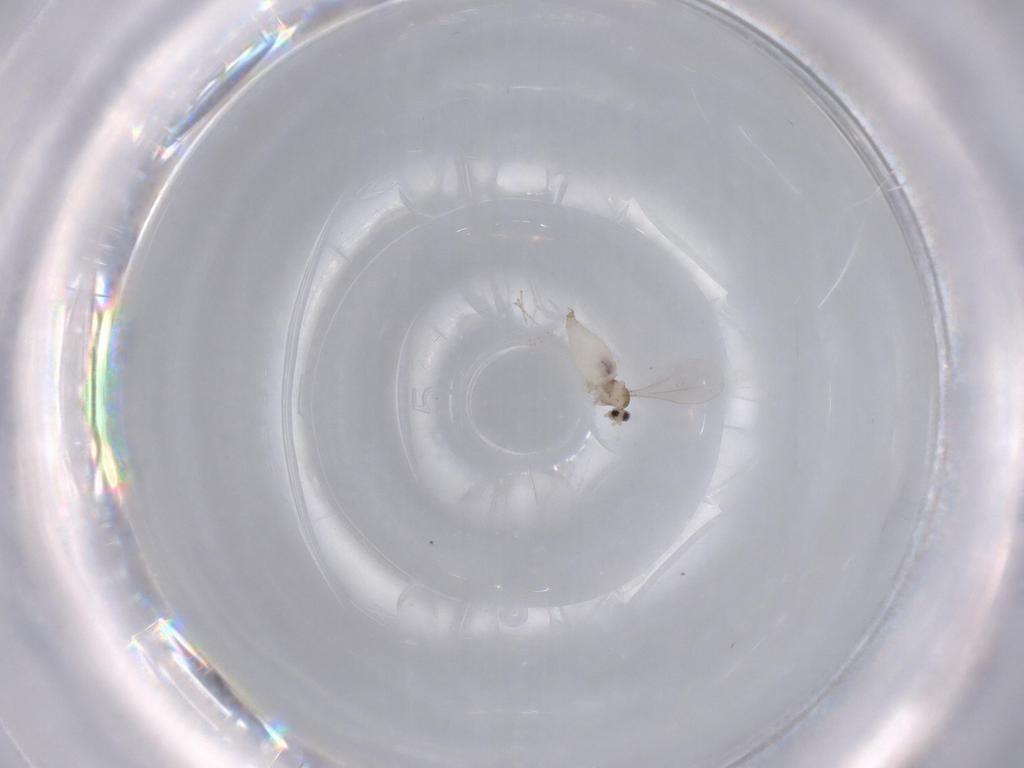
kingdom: Animalia
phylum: Arthropoda
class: Insecta
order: Diptera
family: Cecidomyiidae
